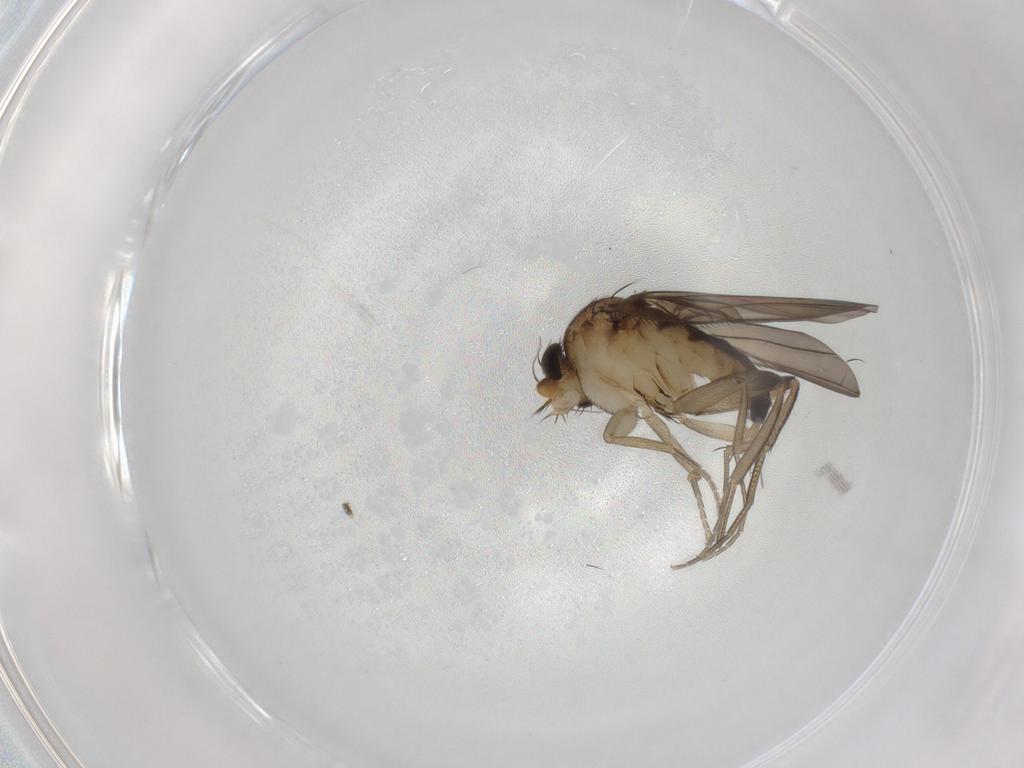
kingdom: Animalia
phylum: Arthropoda
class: Insecta
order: Diptera
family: Phoridae
